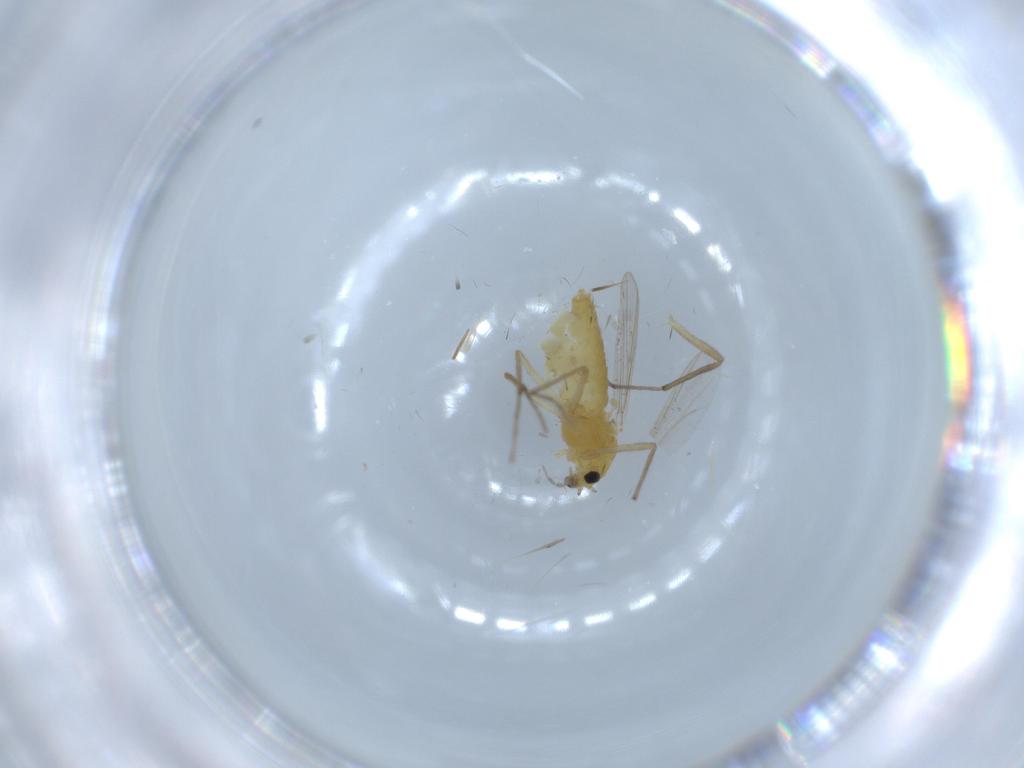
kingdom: Animalia
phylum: Arthropoda
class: Insecta
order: Diptera
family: Chironomidae
